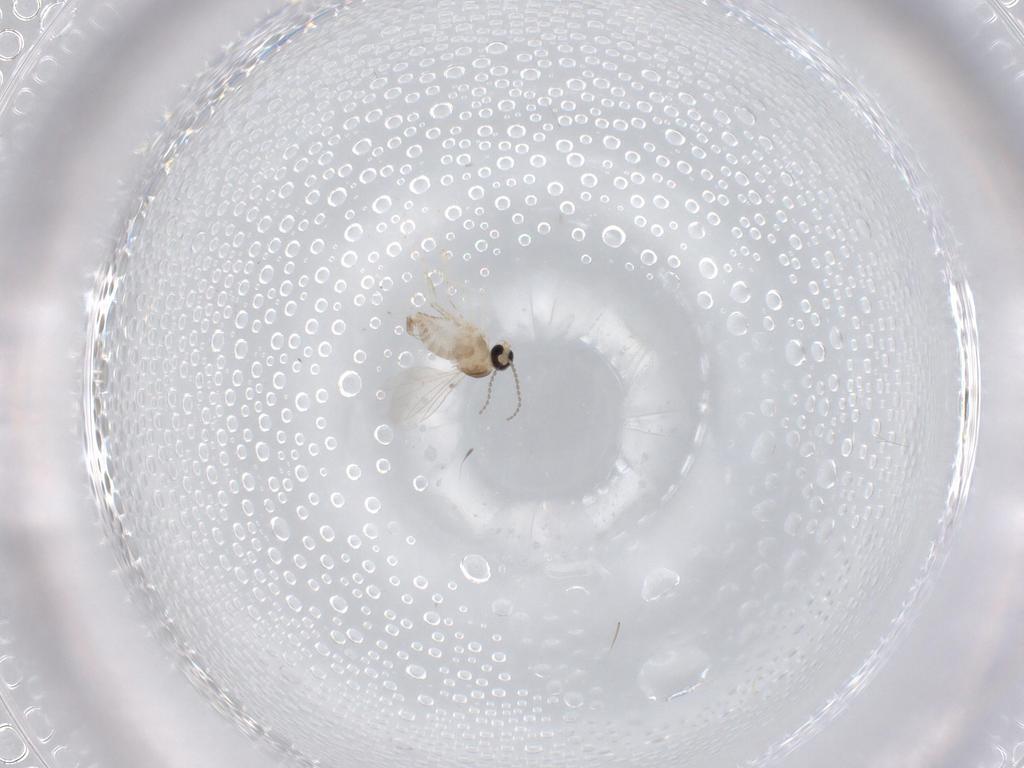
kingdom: Animalia
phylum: Arthropoda
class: Insecta
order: Diptera
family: Cecidomyiidae
